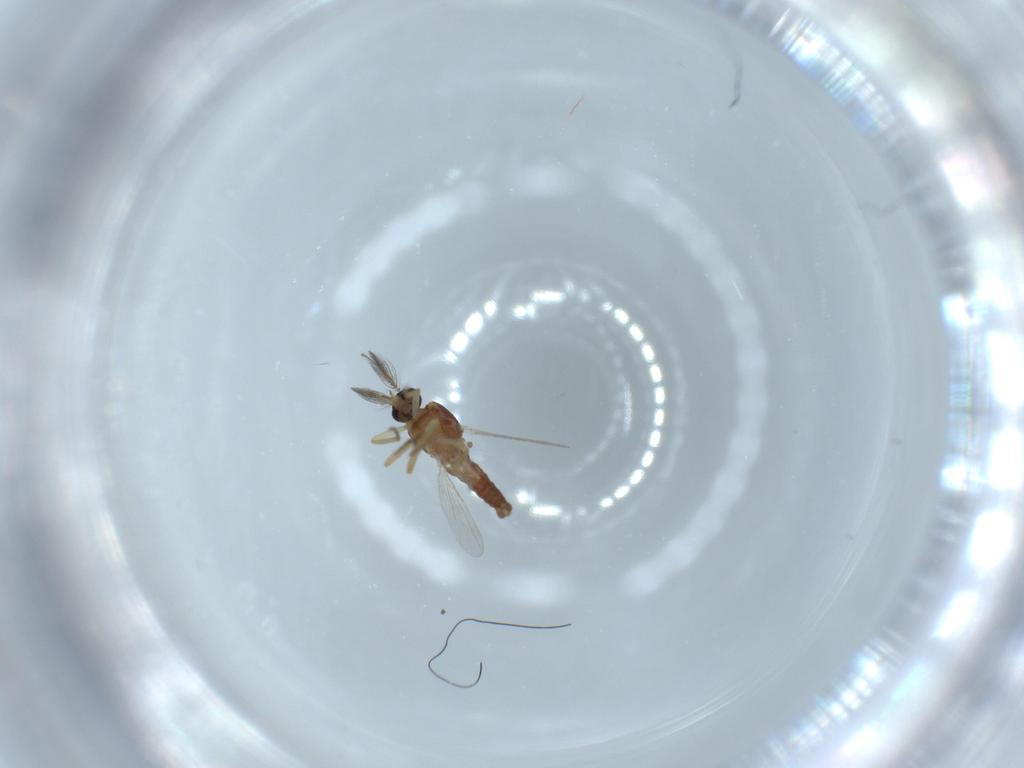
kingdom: Animalia
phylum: Arthropoda
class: Insecta
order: Diptera
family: Ceratopogonidae
